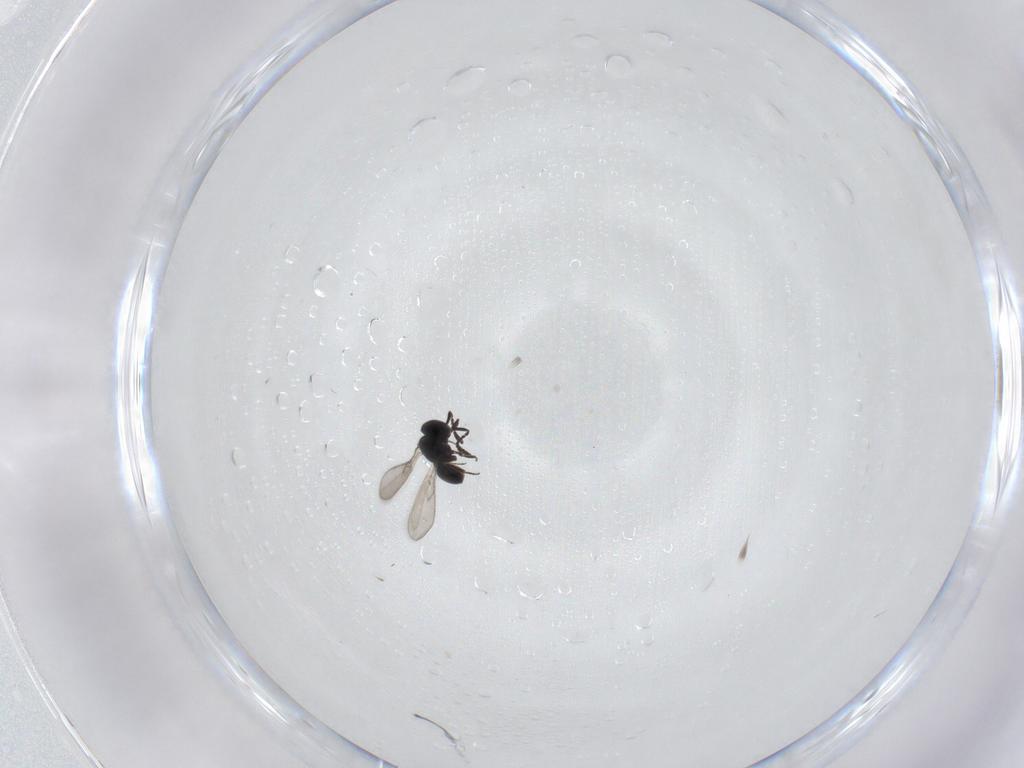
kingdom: Animalia
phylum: Arthropoda
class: Insecta
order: Hymenoptera
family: Scelionidae
